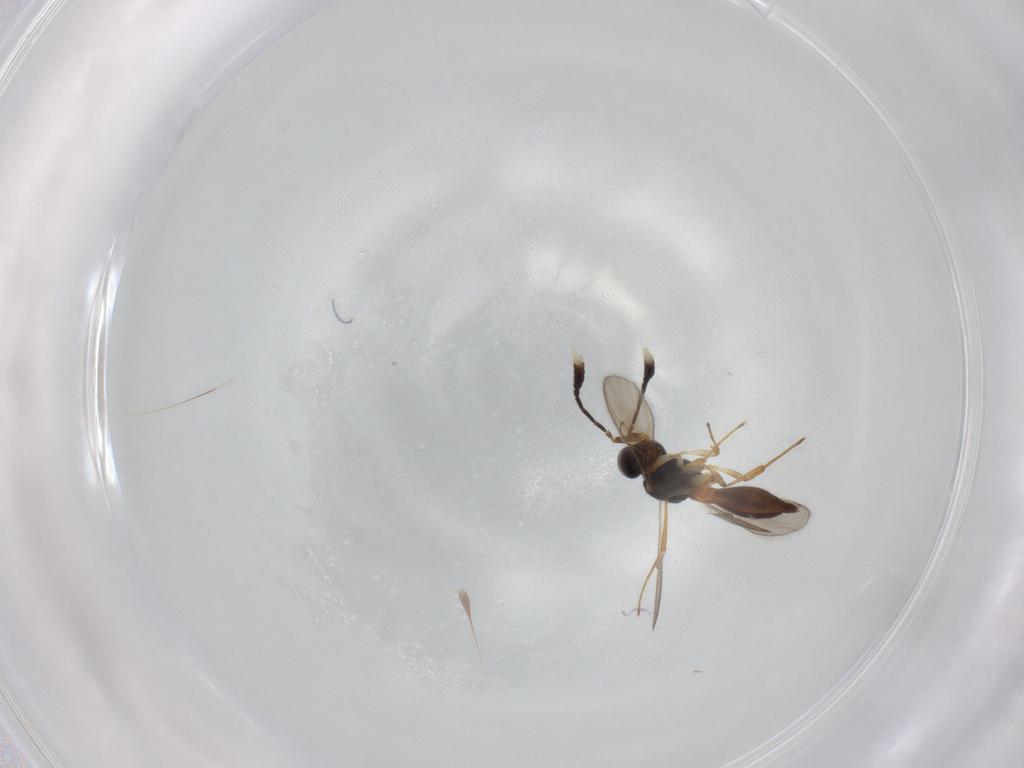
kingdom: Animalia
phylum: Arthropoda
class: Insecta
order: Hymenoptera
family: Scelionidae
